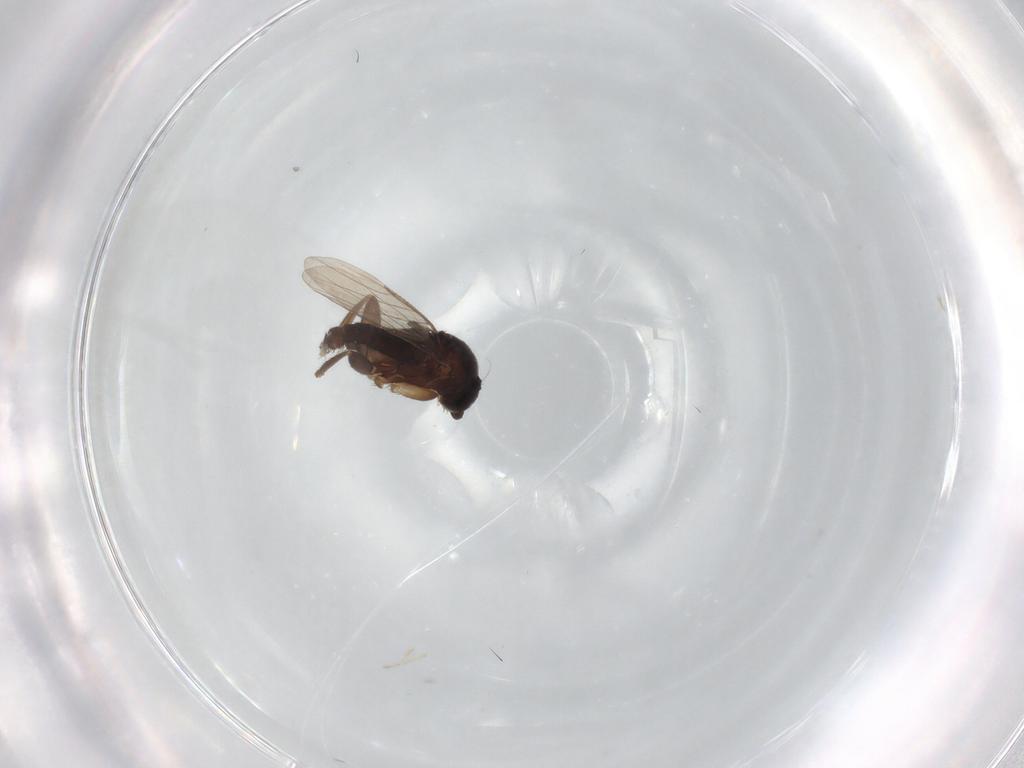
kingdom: Animalia
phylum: Arthropoda
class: Insecta
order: Diptera
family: Phoridae
